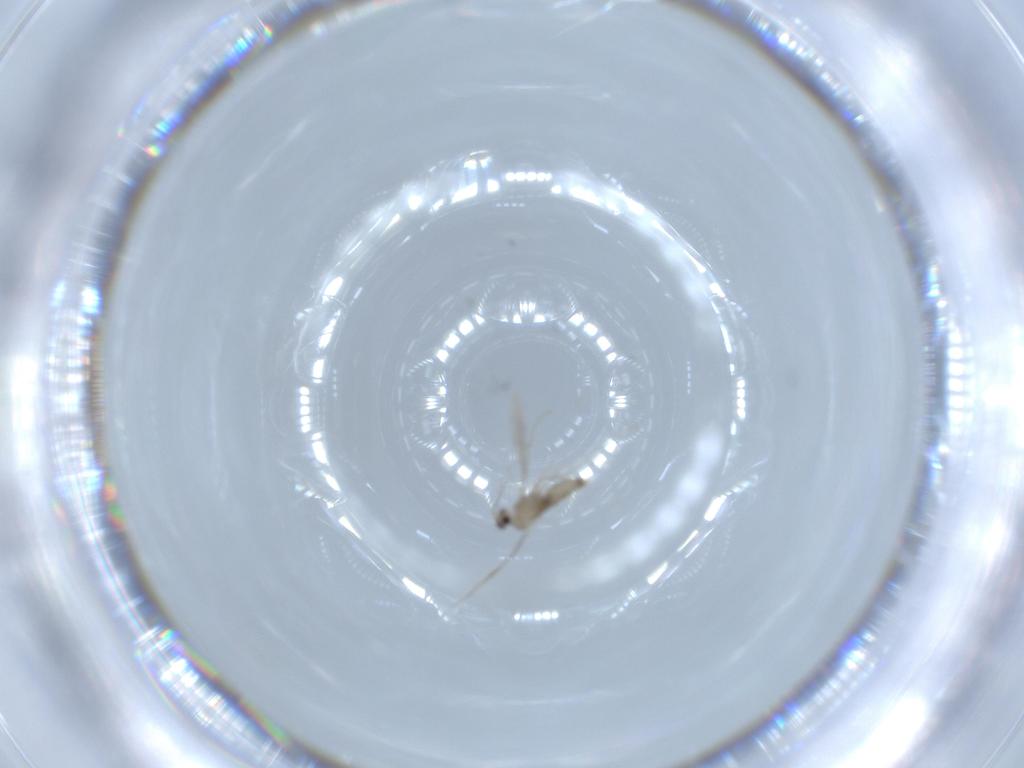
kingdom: Animalia
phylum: Arthropoda
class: Insecta
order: Diptera
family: Cecidomyiidae
